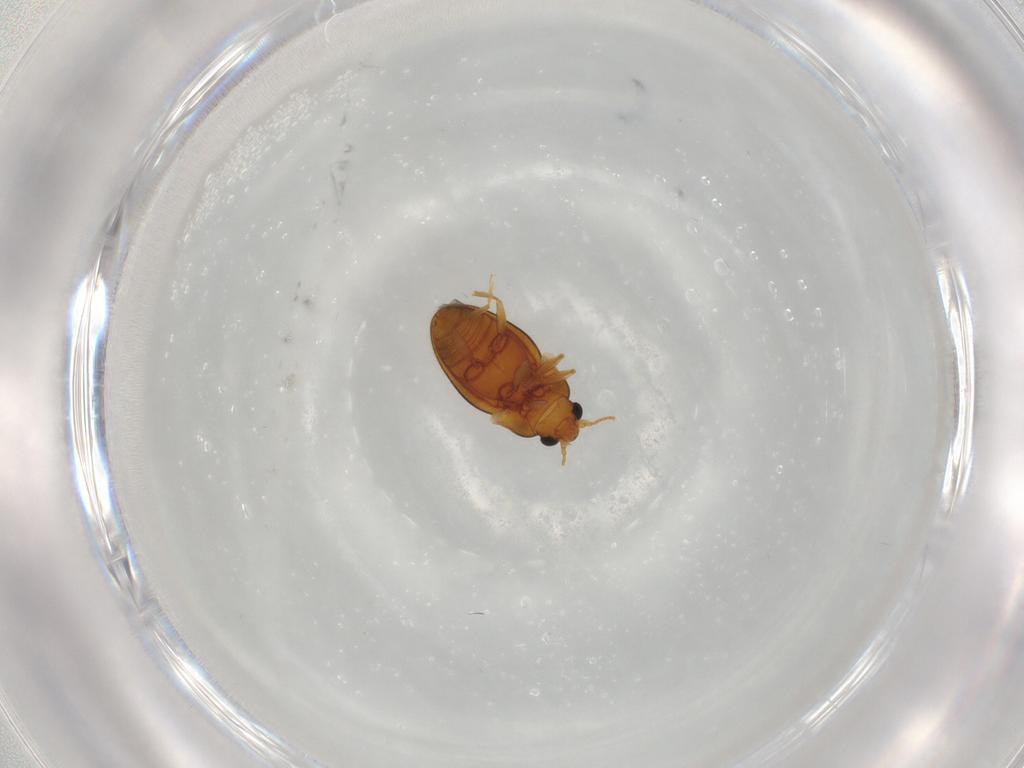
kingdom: Animalia
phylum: Arthropoda
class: Insecta
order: Coleoptera
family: Erotylidae
